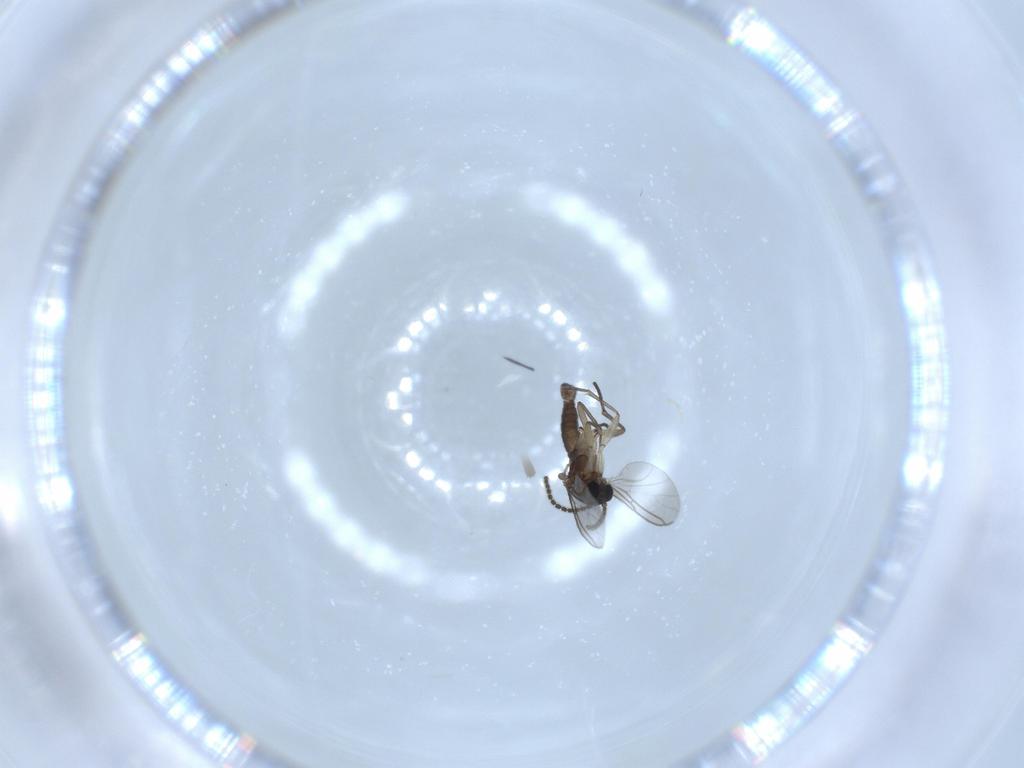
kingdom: Animalia
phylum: Arthropoda
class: Insecta
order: Diptera
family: Sciaridae
